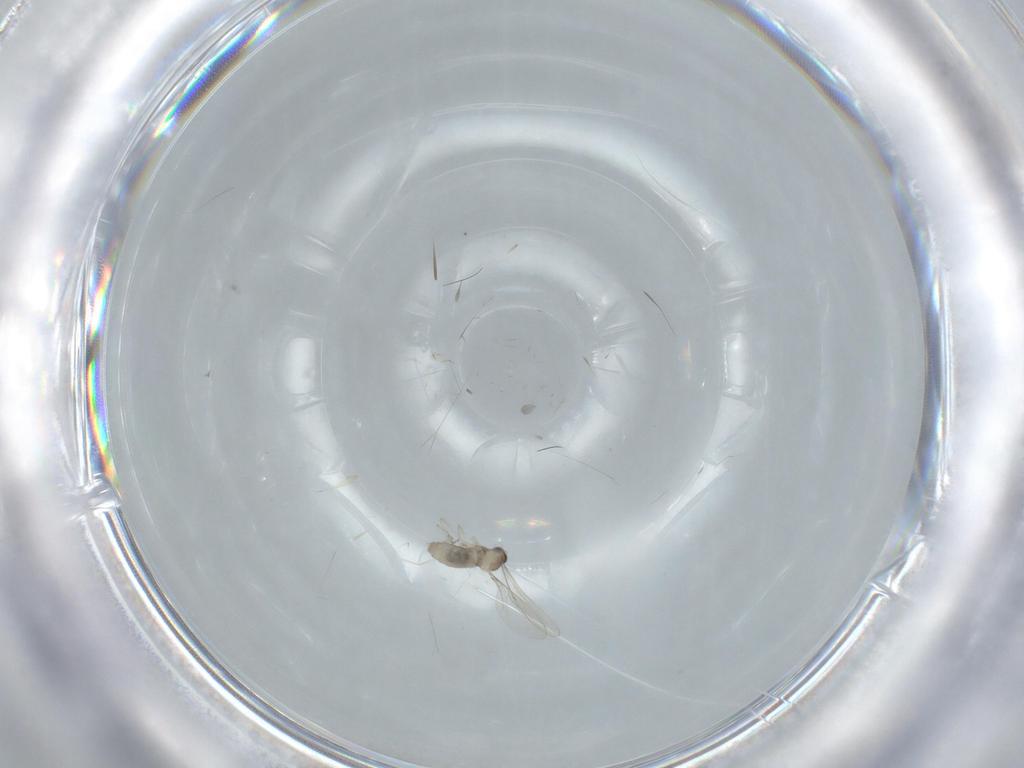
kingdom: Animalia
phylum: Arthropoda
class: Insecta
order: Diptera
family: Cecidomyiidae
